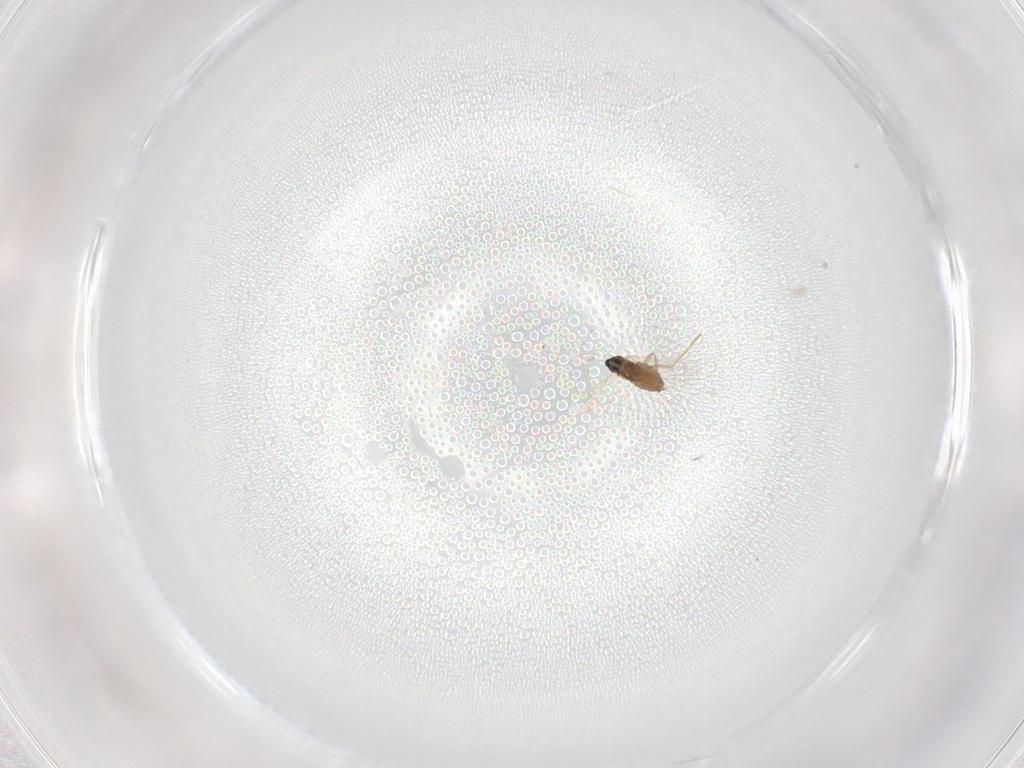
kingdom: Animalia
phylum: Arthropoda
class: Insecta
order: Diptera
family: Cecidomyiidae
